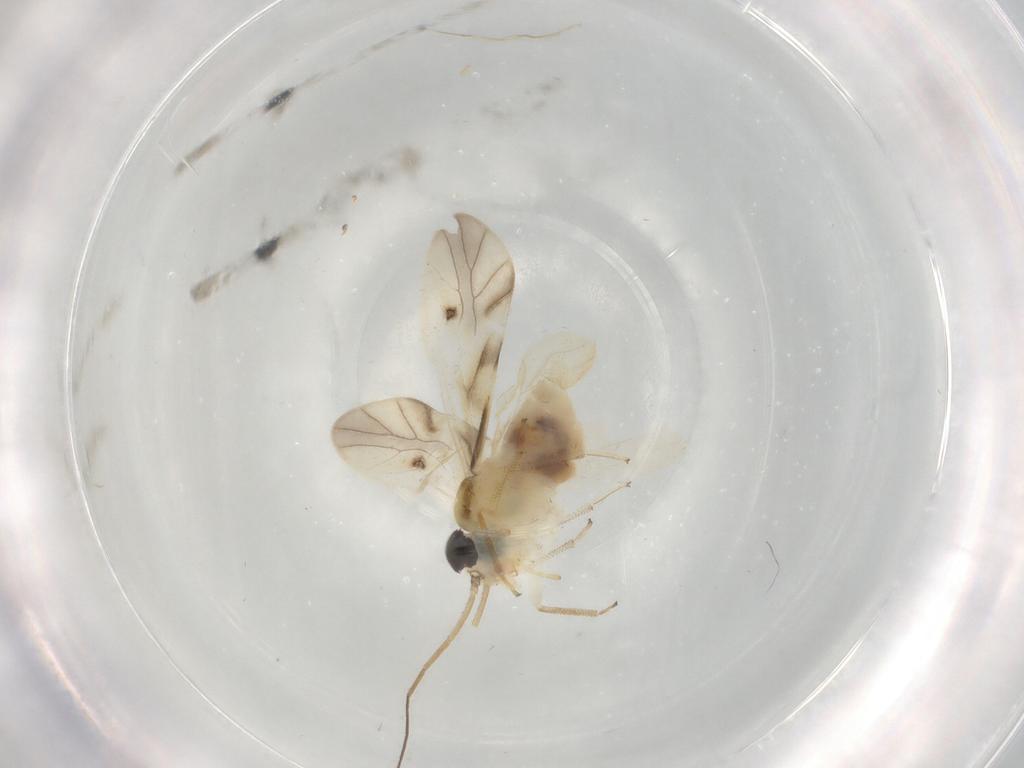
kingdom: Animalia
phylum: Arthropoda
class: Insecta
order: Psocodea
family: Caeciliusidae
